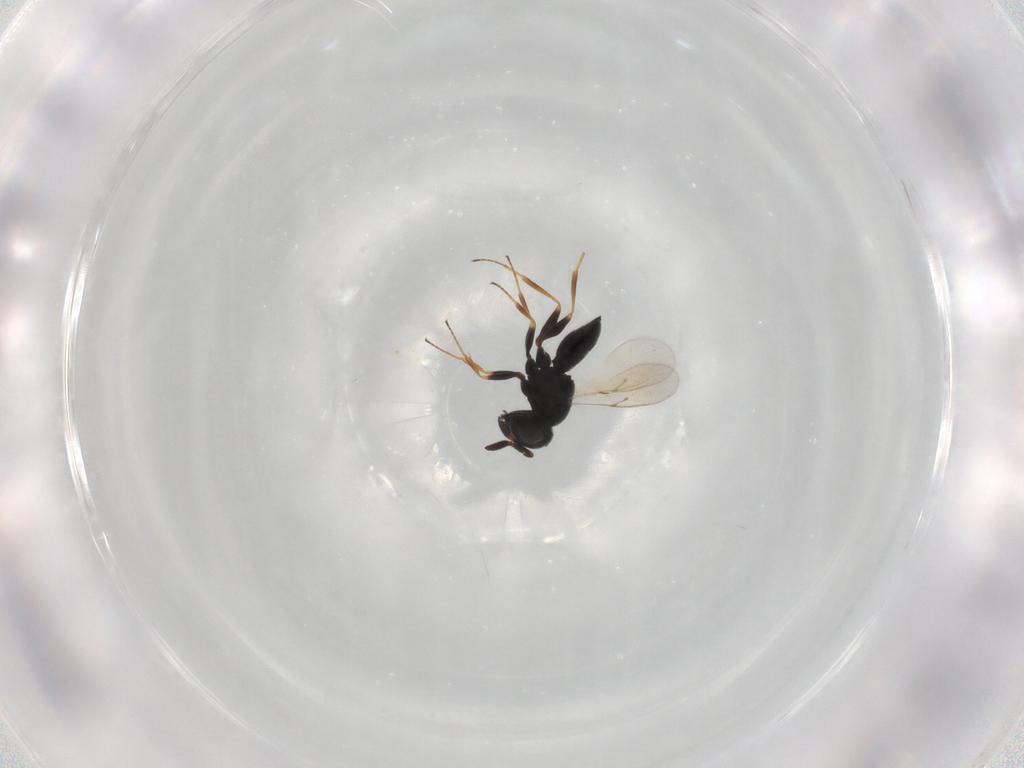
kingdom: Animalia
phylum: Arthropoda
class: Insecta
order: Hymenoptera
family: Scelionidae
